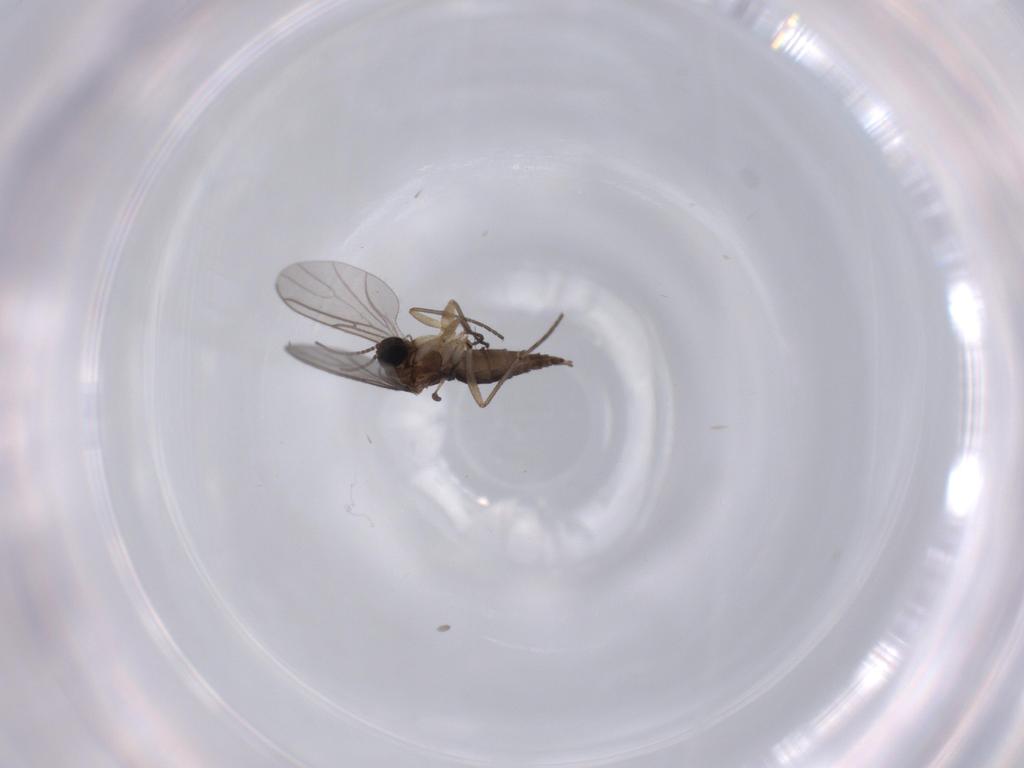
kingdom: Animalia
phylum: Arthropoda
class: Insecta
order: Diptera
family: Sciaridae
